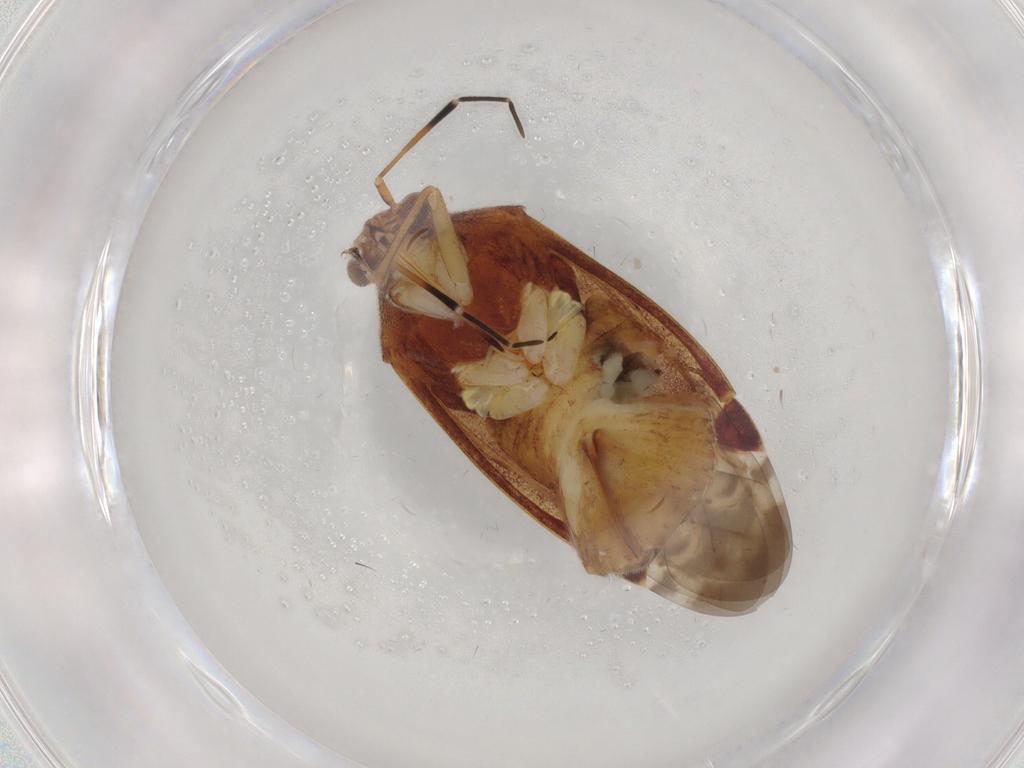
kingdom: Animalia
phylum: Arthropoda
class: Insecta
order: Hemiptera
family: Miridae
